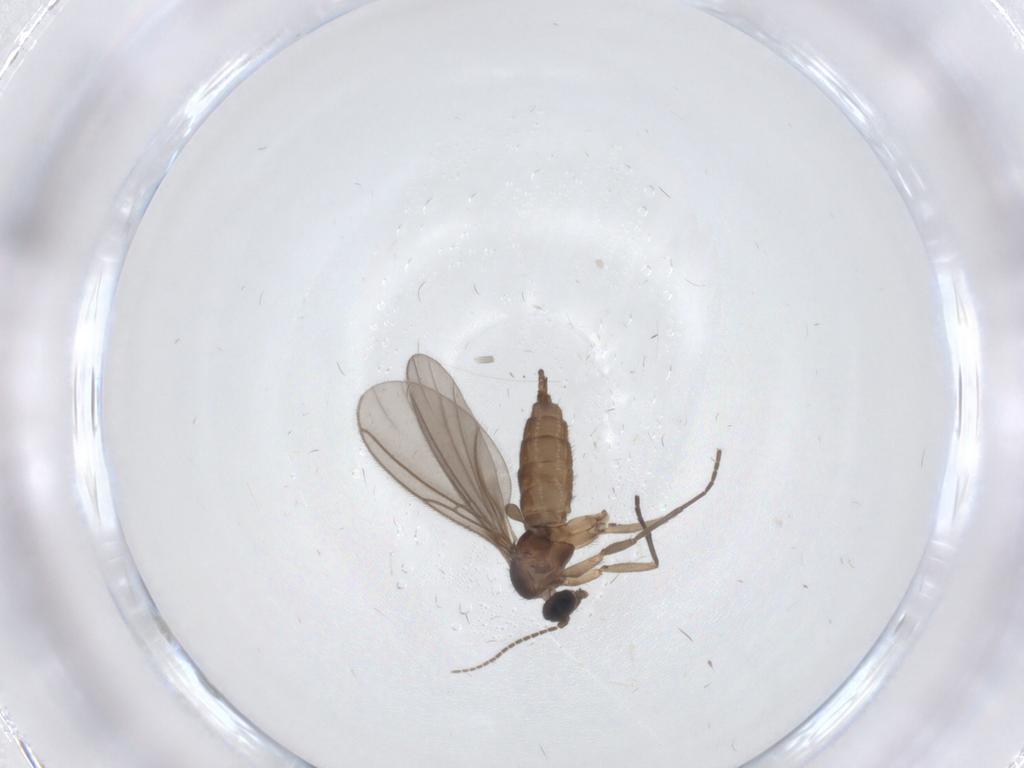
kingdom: Animalia
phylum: Arthropoda
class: Insecta
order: Diptera
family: Sciaridae
